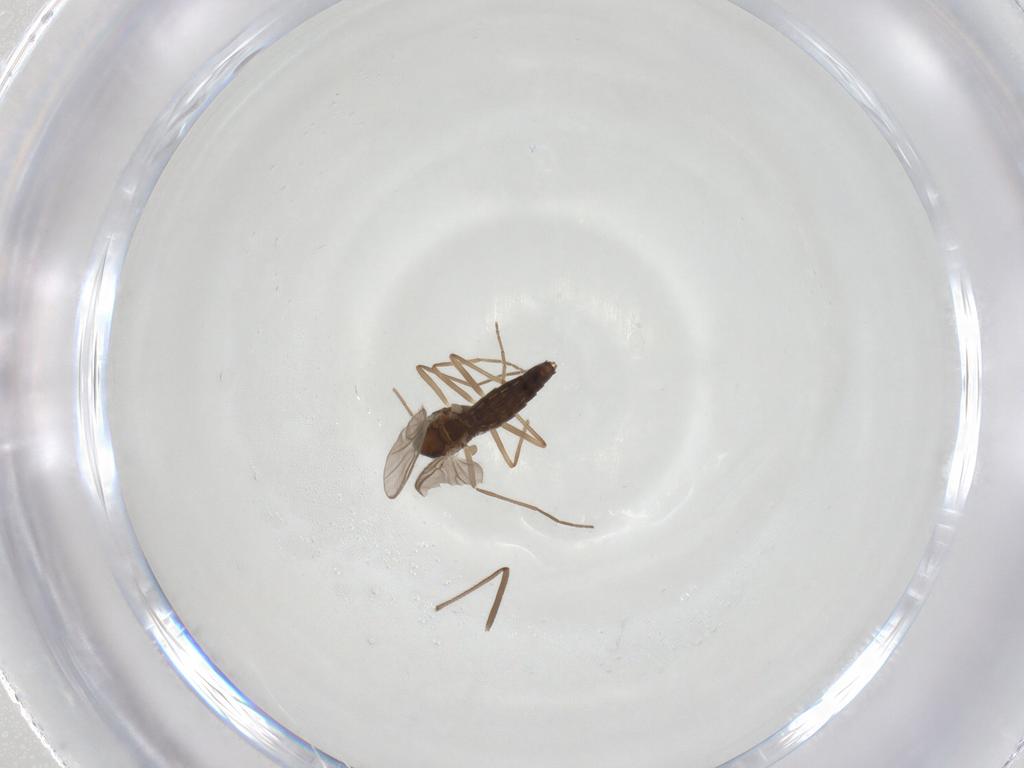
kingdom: Animalia
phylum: Arthropoda
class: Insecta
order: Diptera
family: Chironomidae
